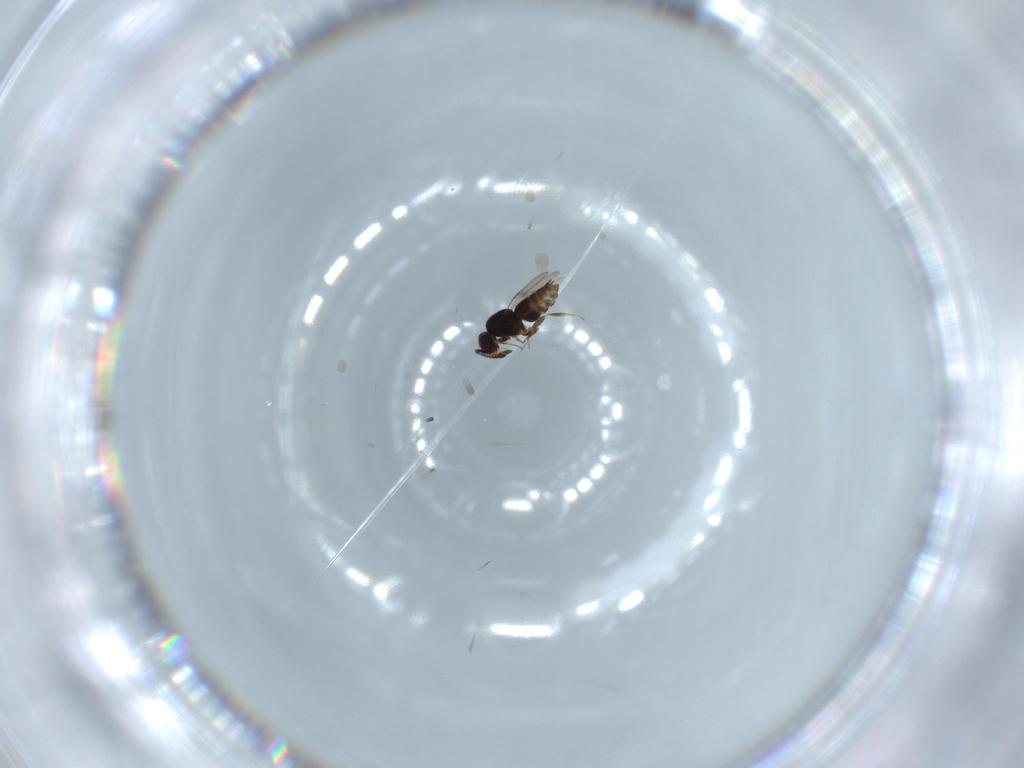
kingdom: Animalia
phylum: Arthropoda
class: Insecta
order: Hymenoptera
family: Ceraphronidae
